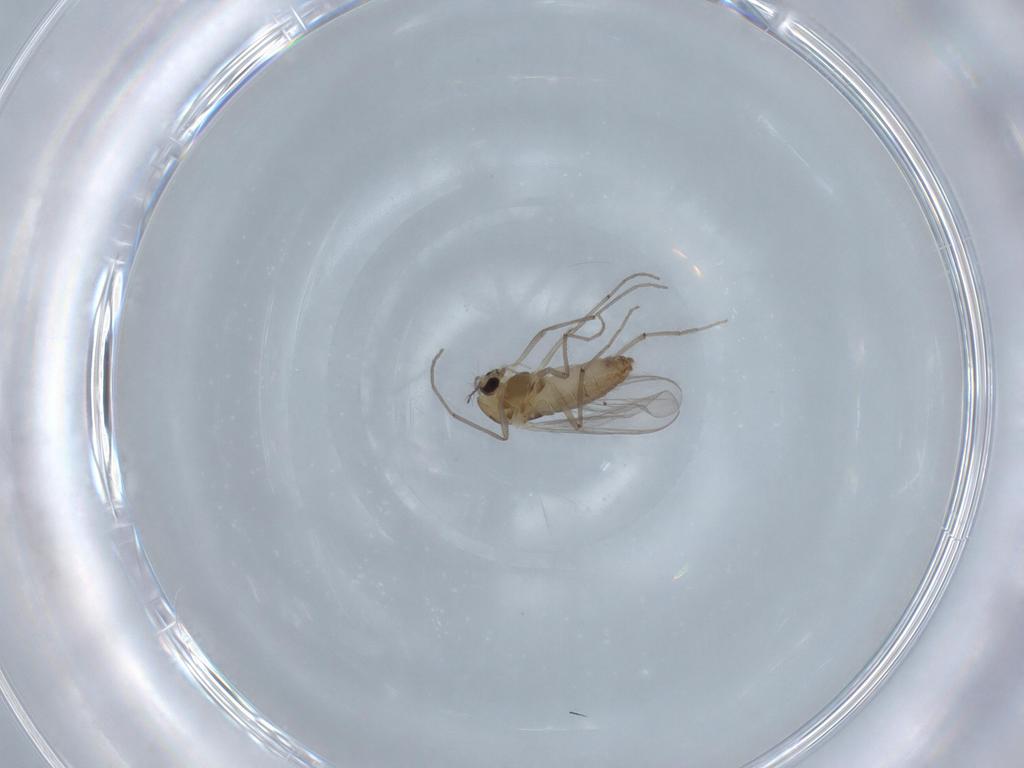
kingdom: Animalia
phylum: Arthropoda
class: Insecta
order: Diptera
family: Chironomidae
